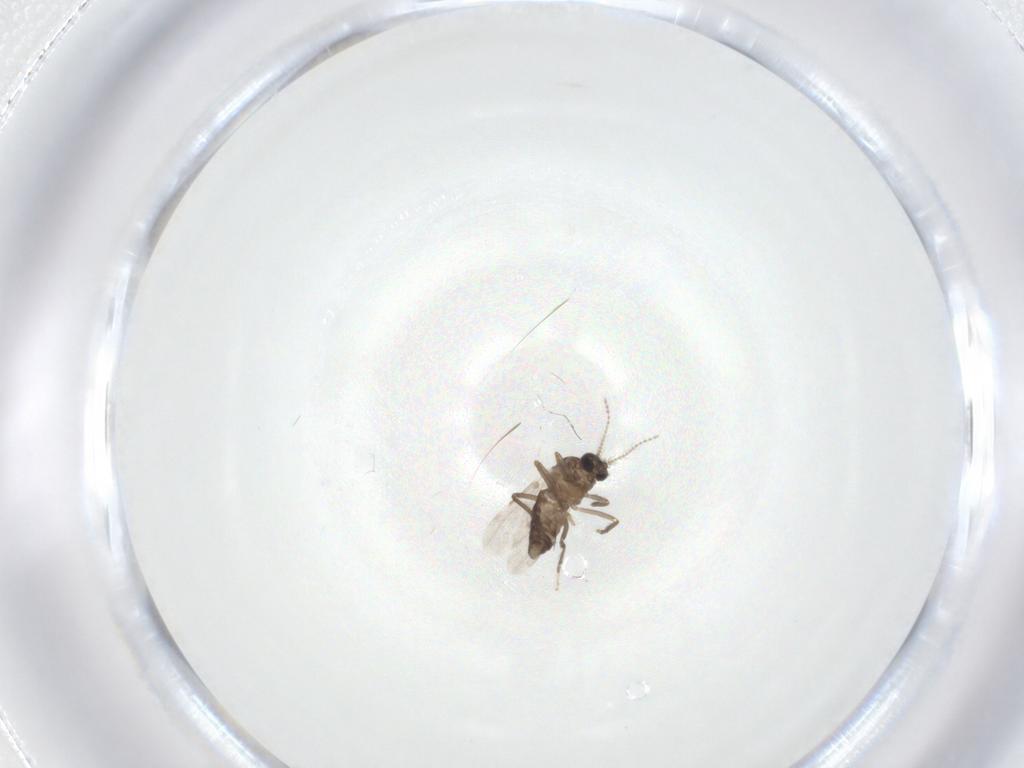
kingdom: Animalia
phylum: Arthropoda
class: Insecta
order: Diptera
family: Ceratopogonidae
